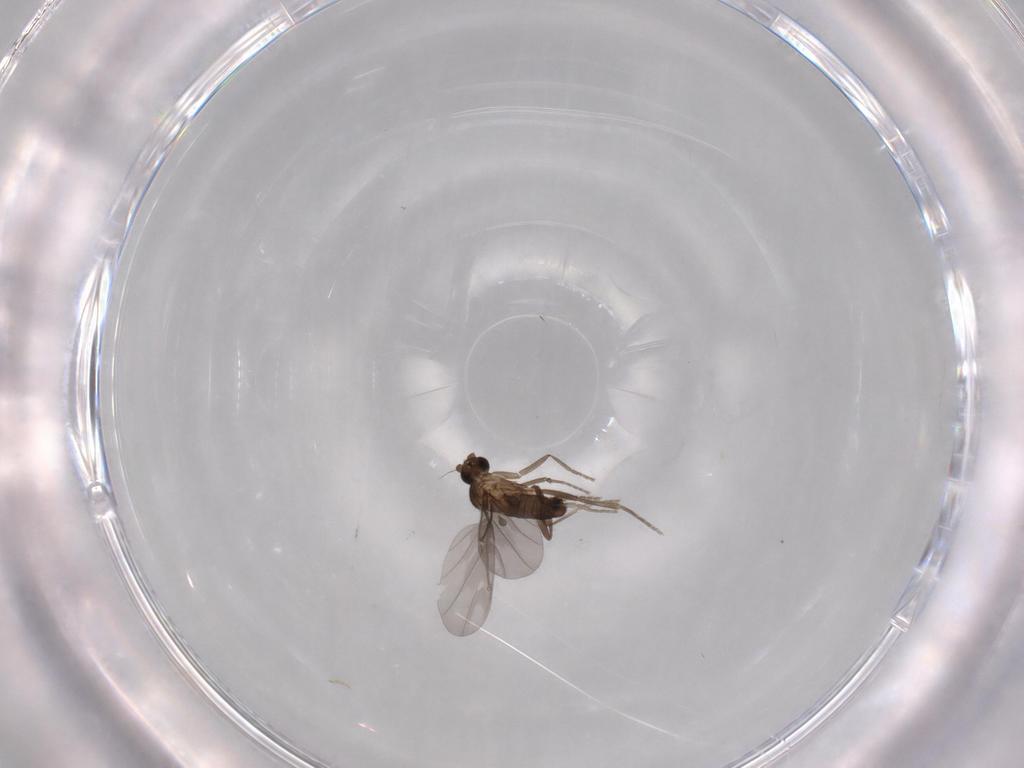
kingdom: Animalia
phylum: Arthropoda
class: Insecta
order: Diptera
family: Phoridae
